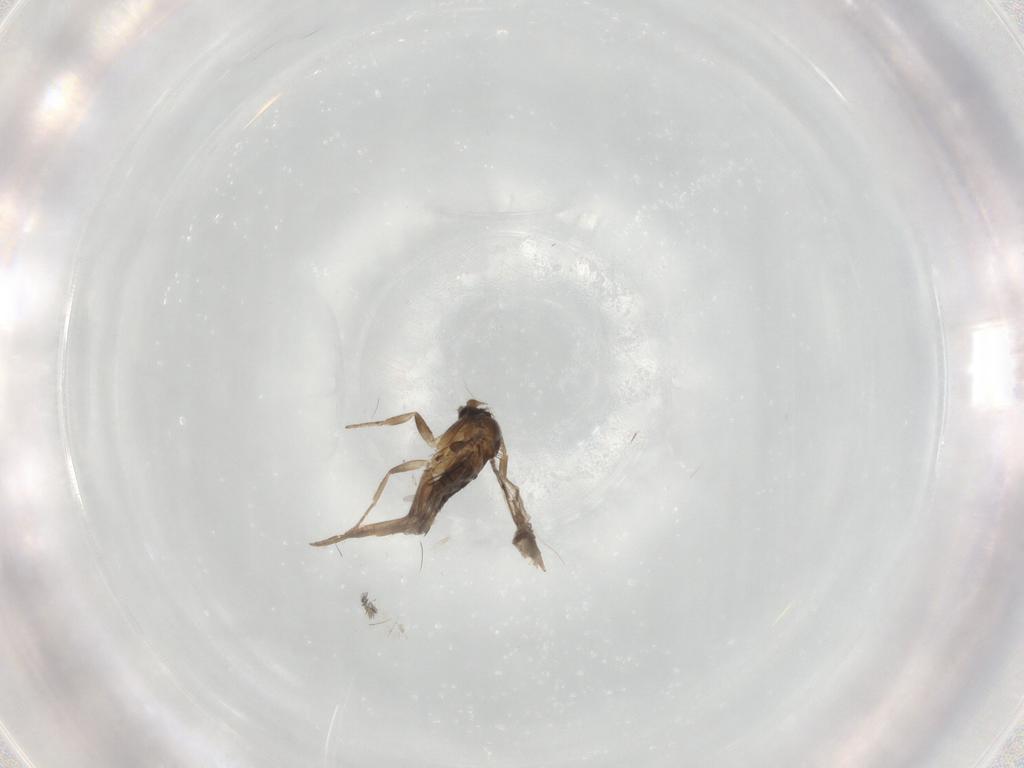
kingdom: Animalia
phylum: Arthropoda
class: Insecta
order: Diptera
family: Phoridae
